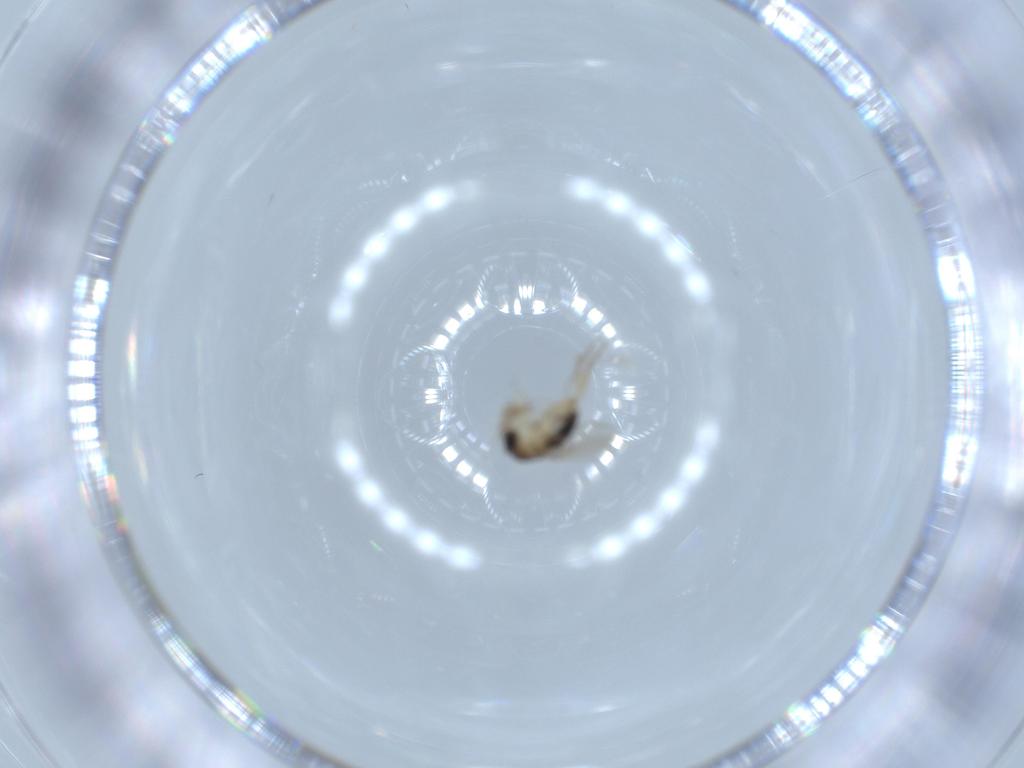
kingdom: Animalia
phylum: Arthropoda
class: Insecta
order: Diptera
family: Phoridae
